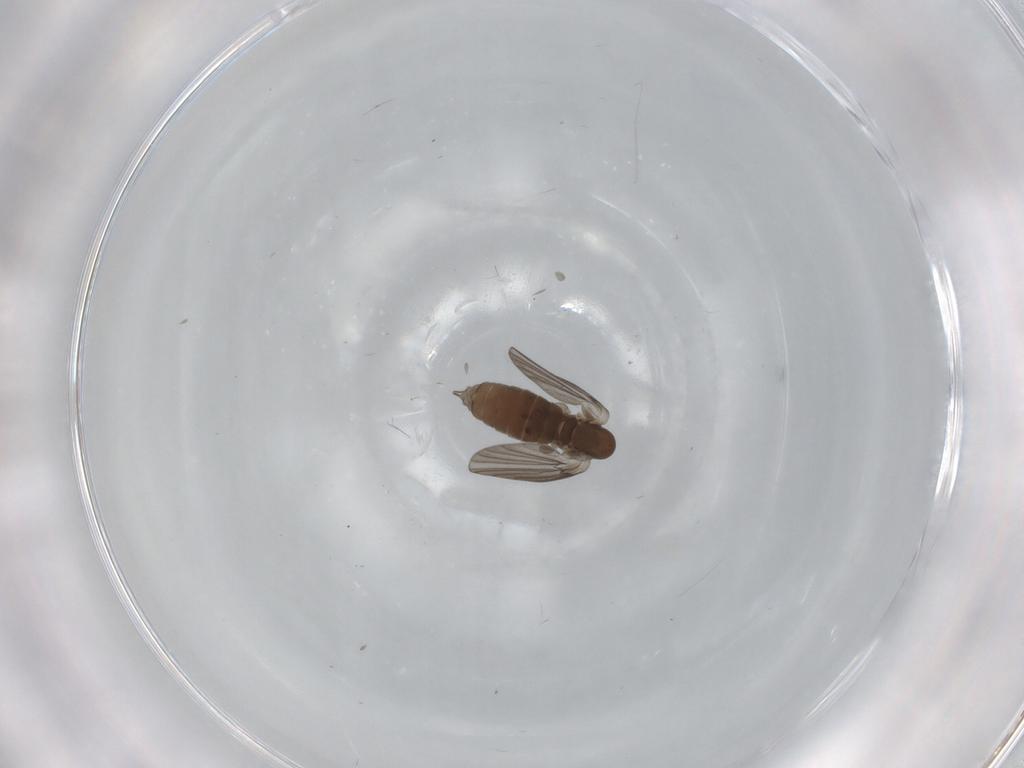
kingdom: Animalia
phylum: Arthropoda
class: Insecta
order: Diptera
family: Psychodidae
